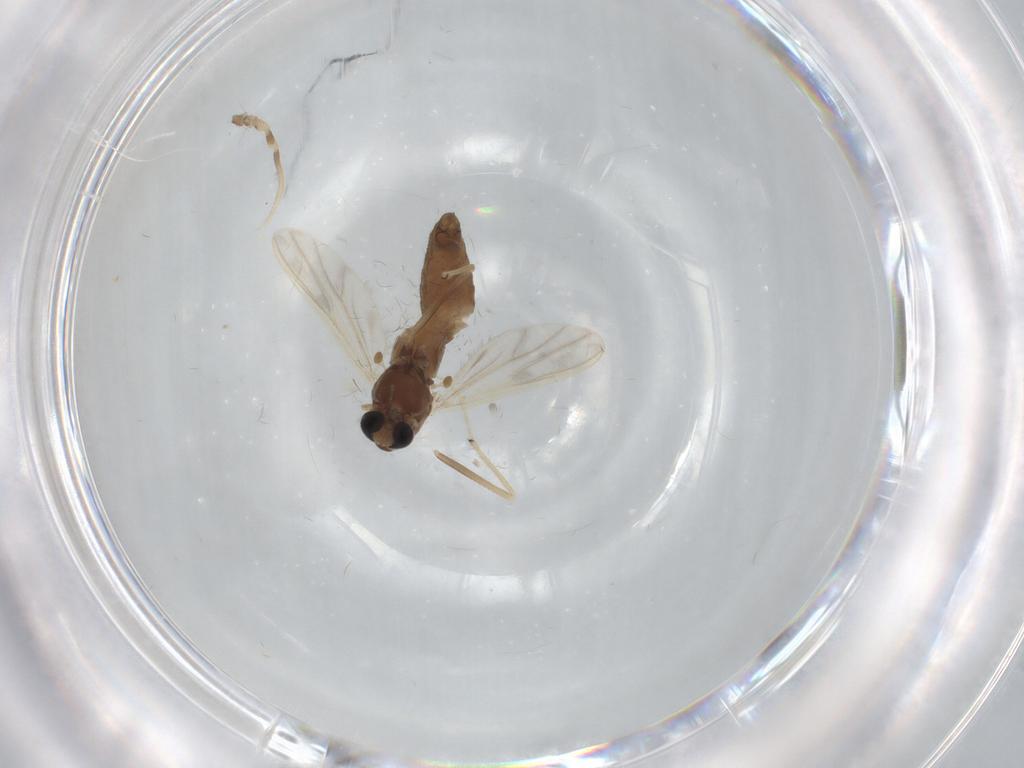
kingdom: Animalia
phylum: Arthropoda
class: Insecta
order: Diptera
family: Chironomidae
